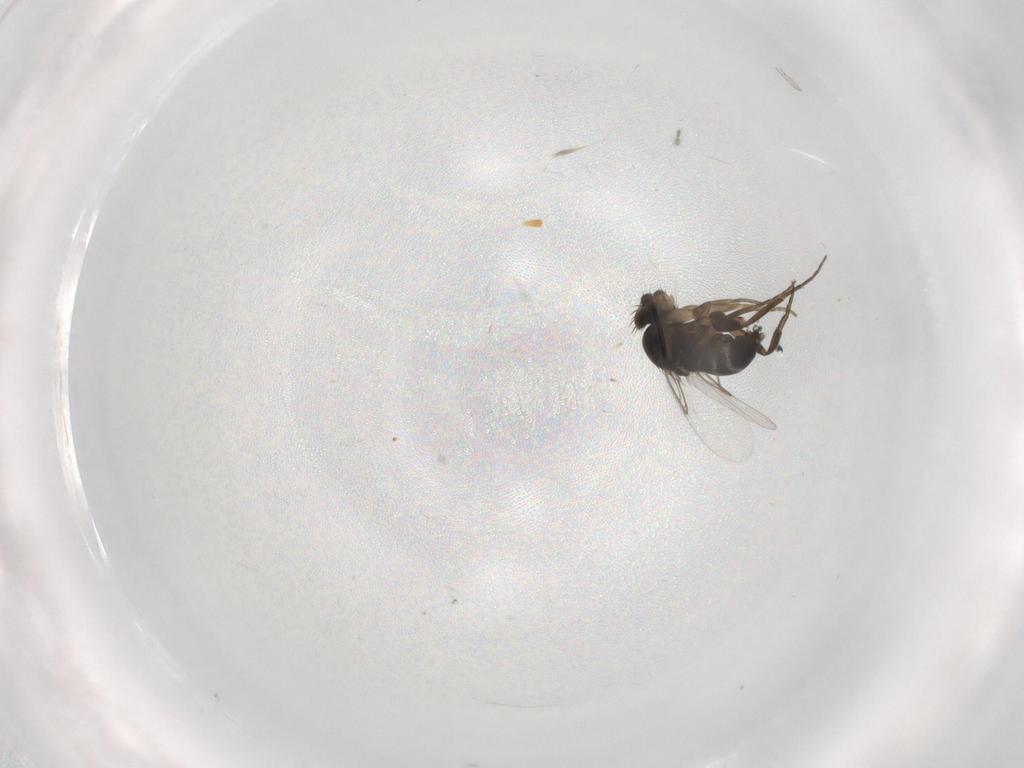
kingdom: Animalia
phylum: Arthropoda
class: Insecta
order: Diptera
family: Phoridae
